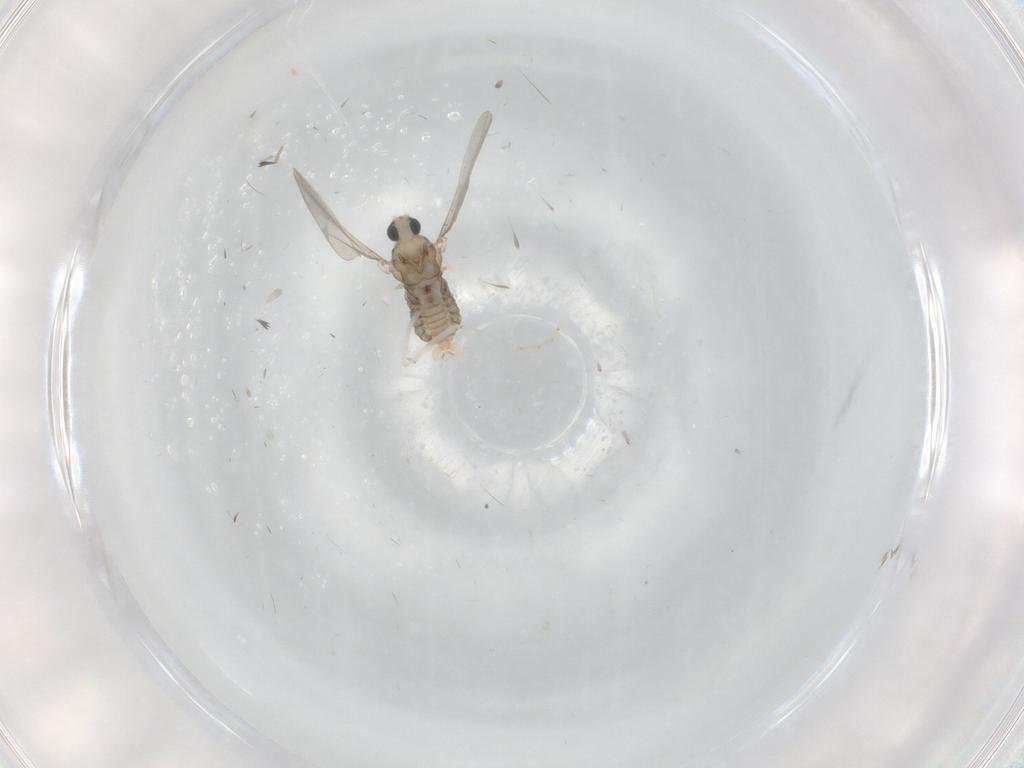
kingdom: Animalia
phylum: Arthropoda
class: Insecta
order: Diptera
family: Cecidomyiidae
